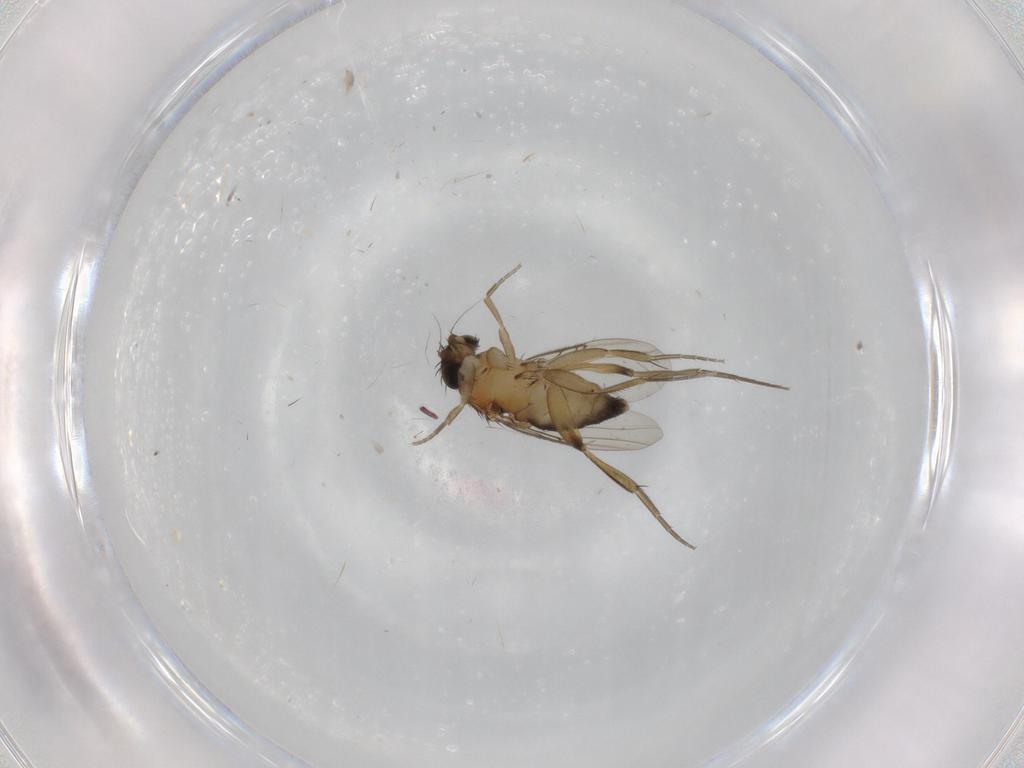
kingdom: Animalia
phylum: Arthropoda
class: Insecta
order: Diptera
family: Phoridae
